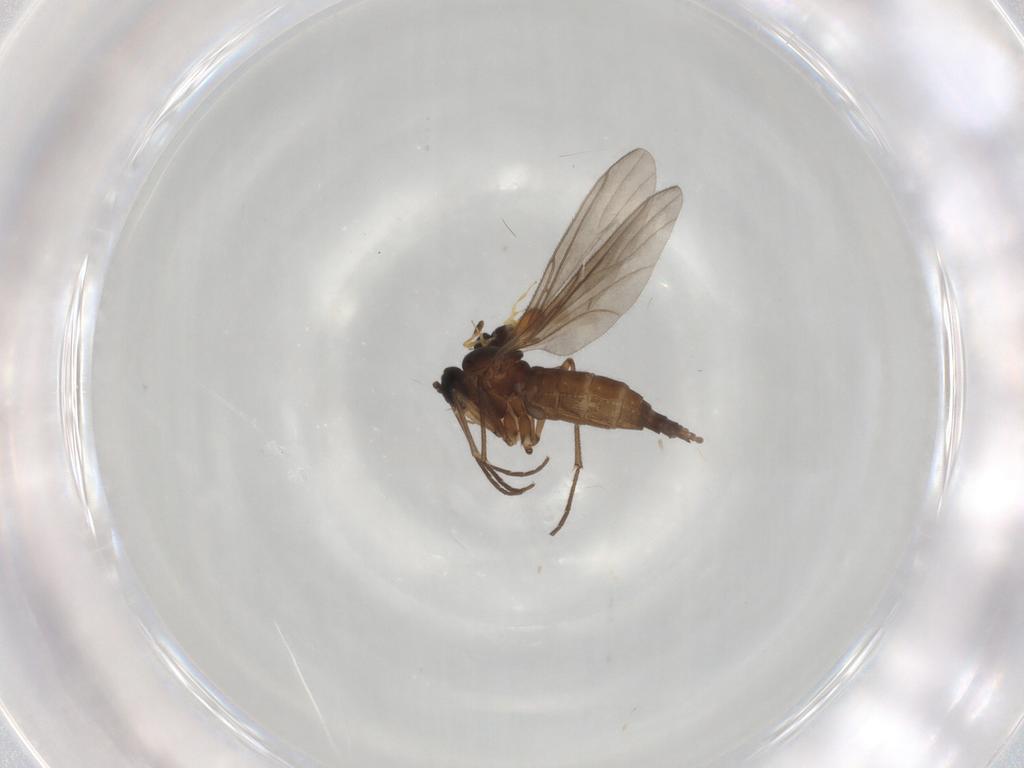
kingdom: Animalia
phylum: Arthropoda
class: Insecta
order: Diptera
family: Sciaridae
